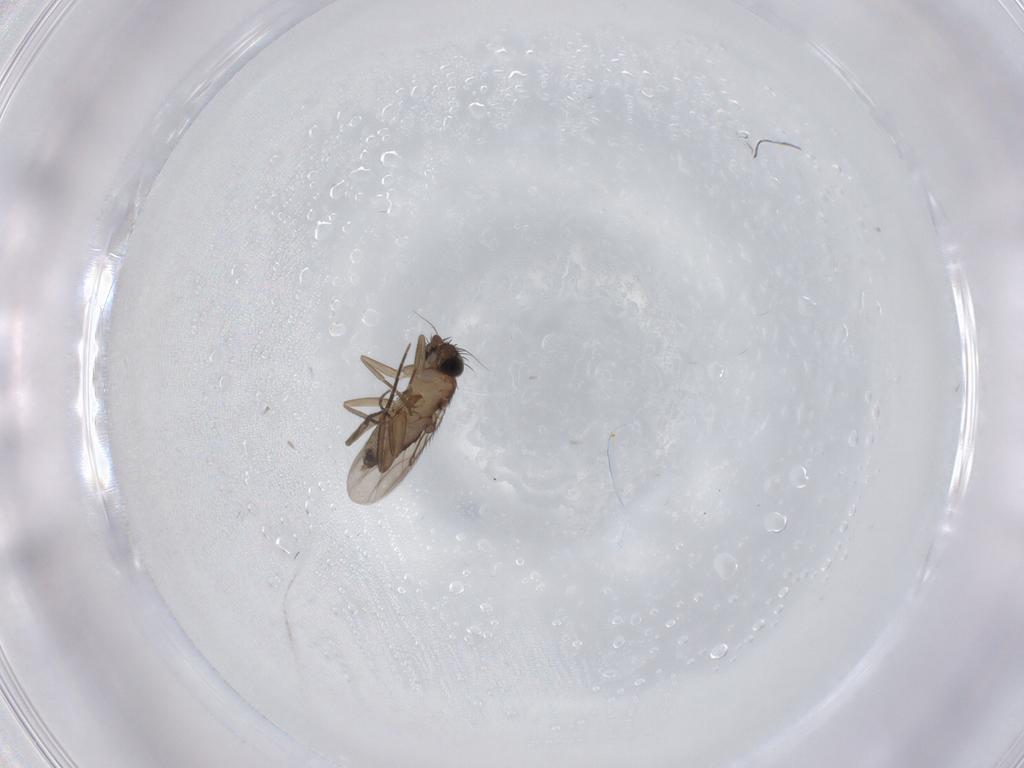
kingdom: Animalia
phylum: Arthropoda
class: Insecta
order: Diptera
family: Phoridae
